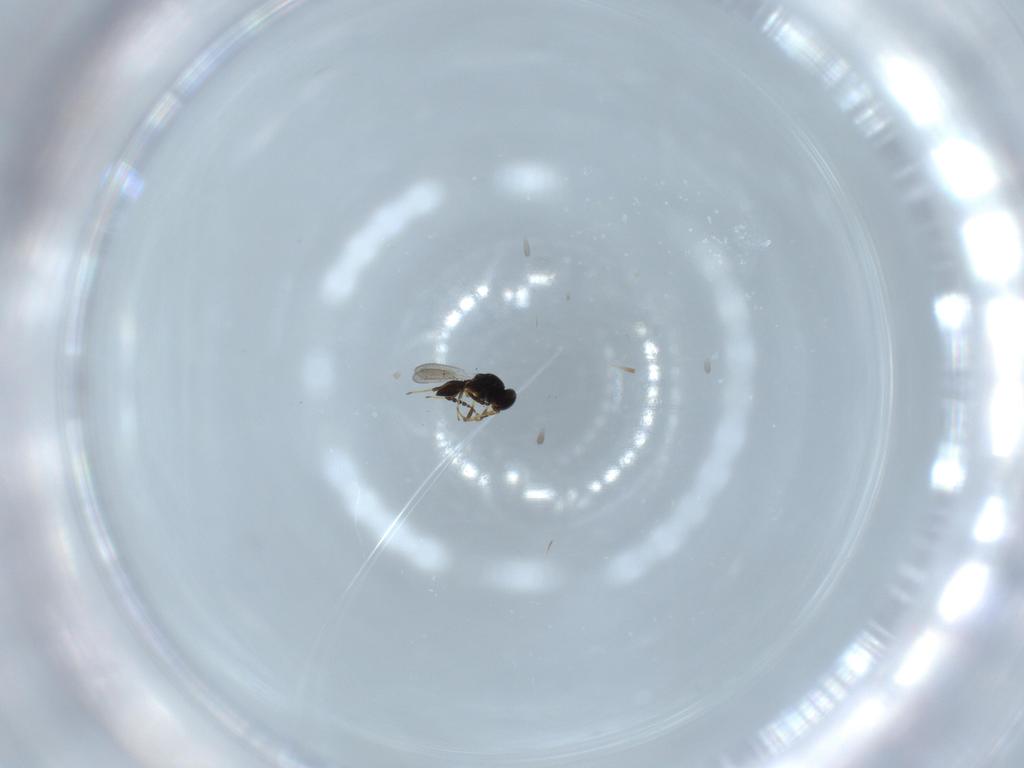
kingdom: Animalia
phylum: Arthropoda
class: Insecta
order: Hymenoptera
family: Platygastridae
